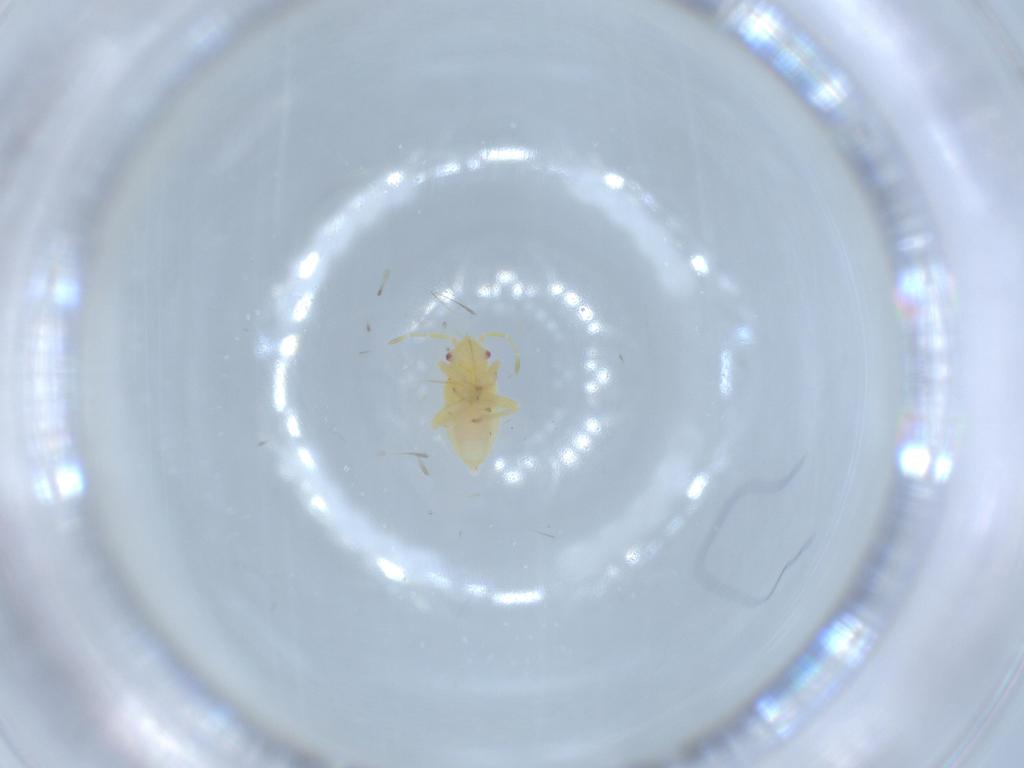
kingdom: Animalia
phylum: Arthropoda
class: Insecta
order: Hemiptera
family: Miridae
